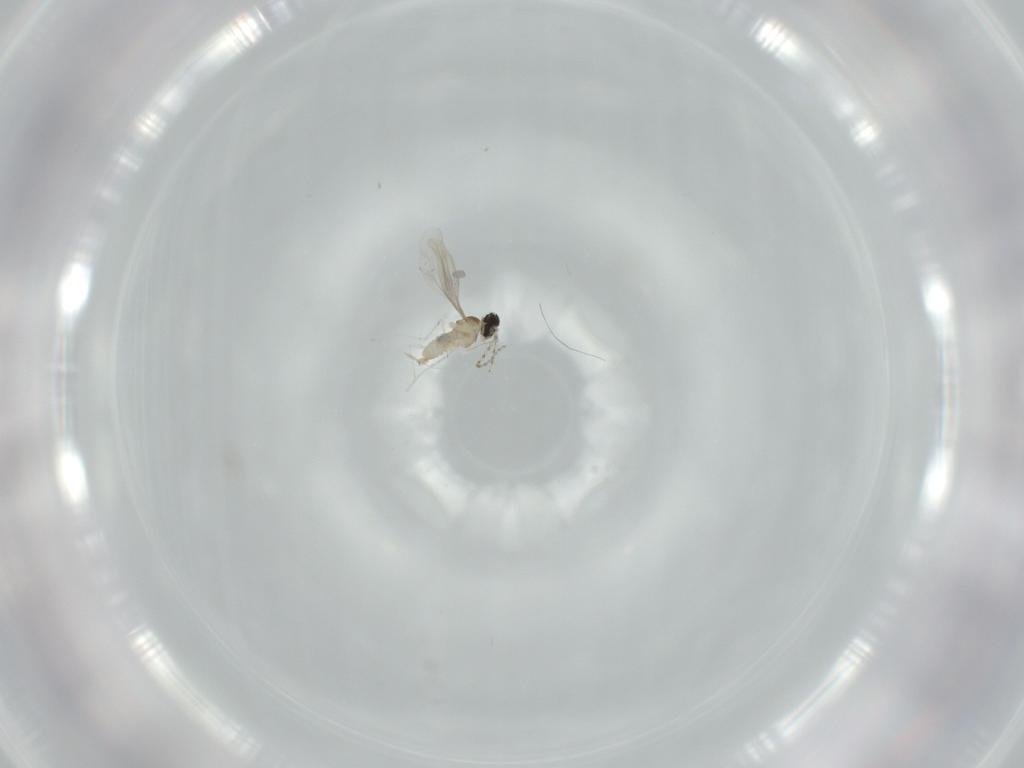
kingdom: Animalia
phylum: Arthropoda
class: Insecta
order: Diptera
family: Cecidomyiidae
